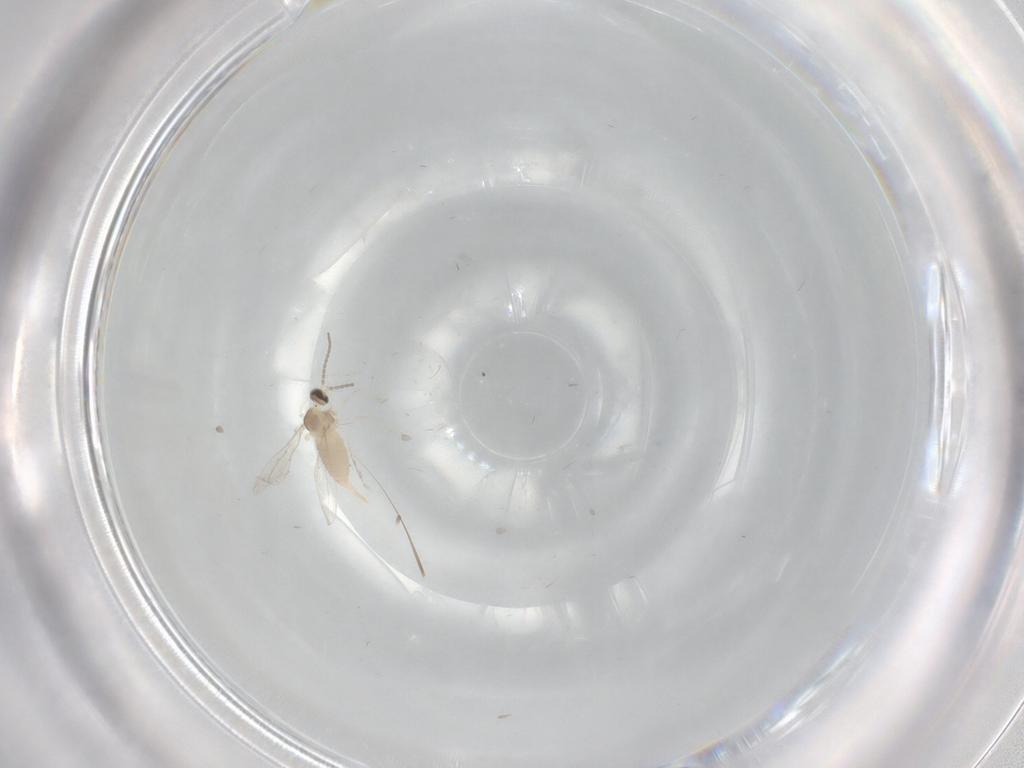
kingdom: Animalia
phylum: Arthropoda
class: Insecta
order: Diptera
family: Cecidomyiidae
